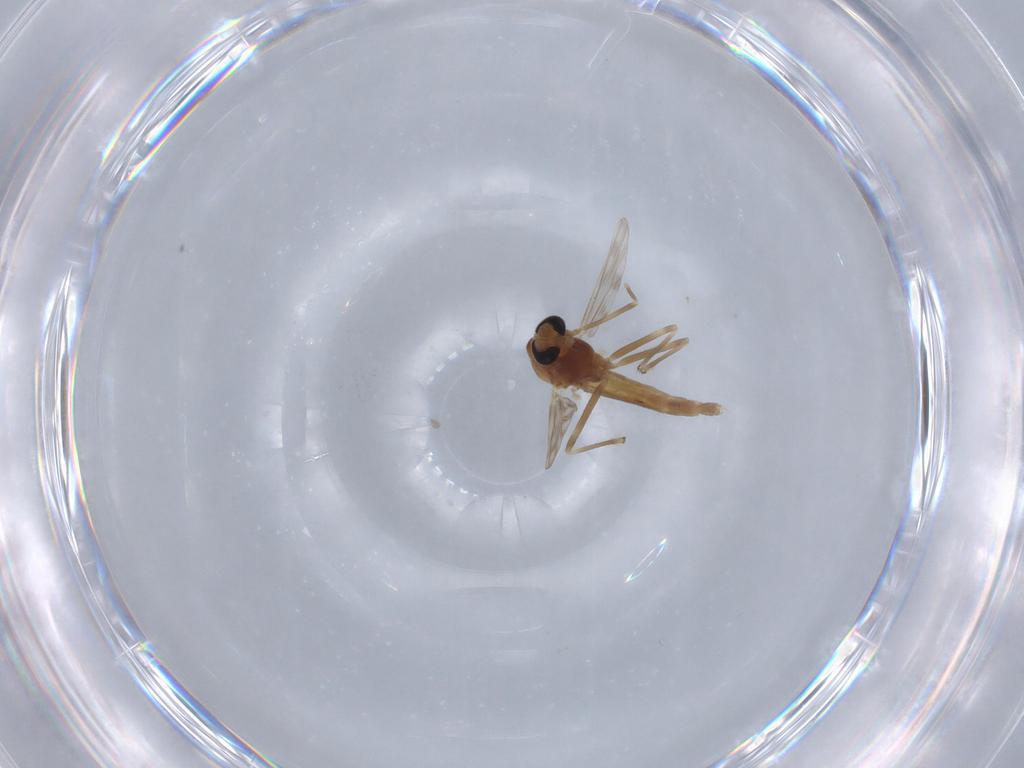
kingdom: Animalia
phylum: Arthropoda
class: Insecta
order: Diptera
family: Chironomidae
